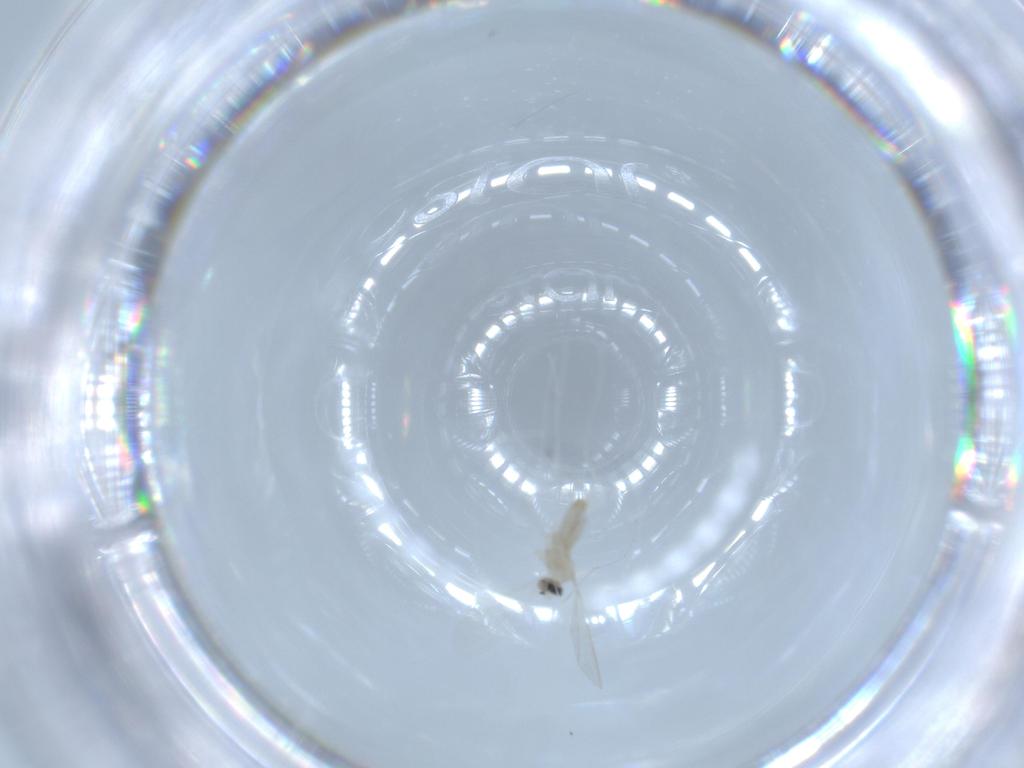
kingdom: Animalia
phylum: Arthropoda
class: Insecta
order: Diptera
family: Cecidomyiidae
